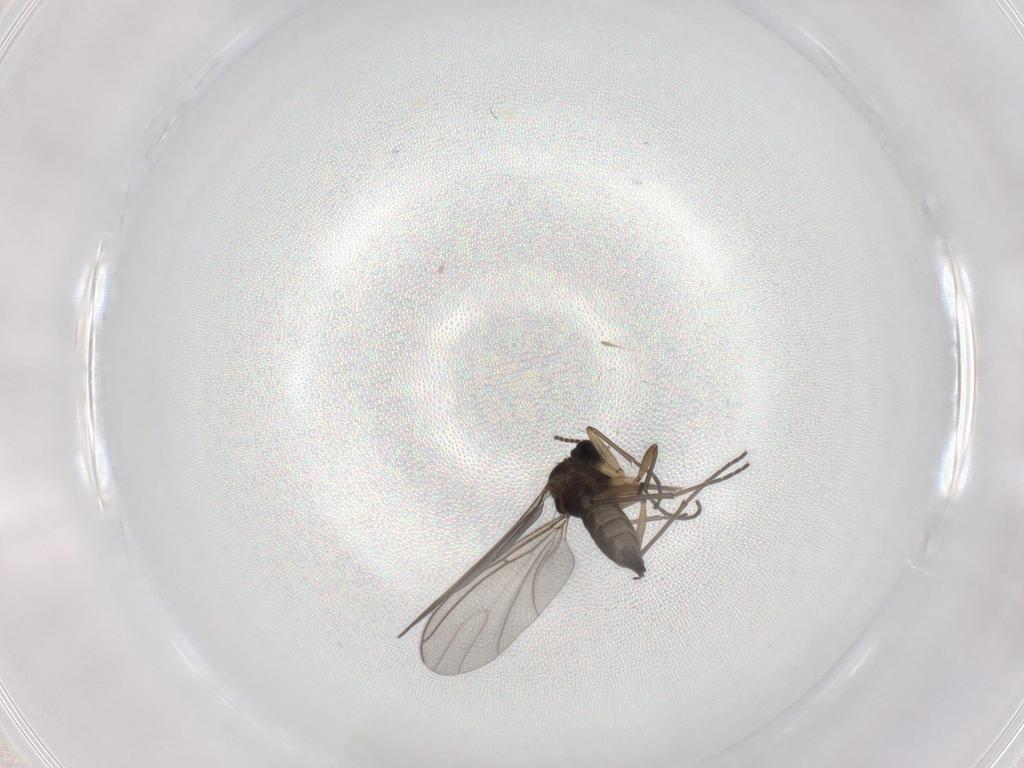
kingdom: Animalia
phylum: Arthropoda
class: Insecta
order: Diptera
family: Sciaridae
